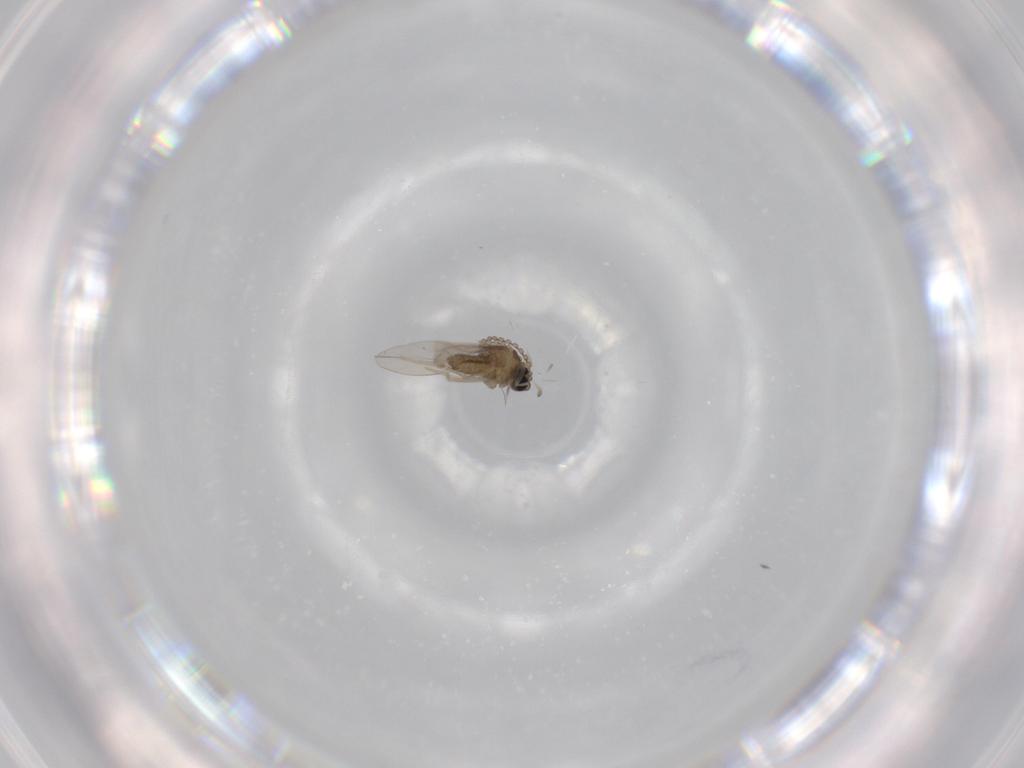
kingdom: Animalia
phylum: Arthropoda
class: Insecta
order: Diptera
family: Cecidomyiidae
